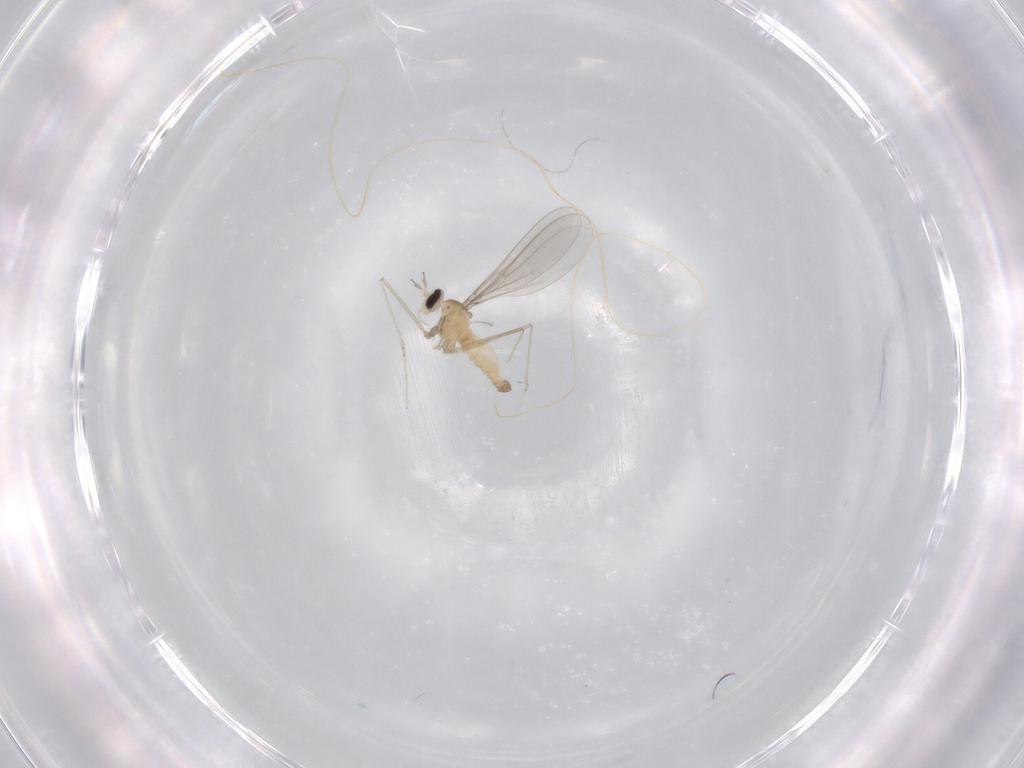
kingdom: Animalia
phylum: Arthropoda
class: Insecta
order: Diptera
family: Cecidomyiidae
